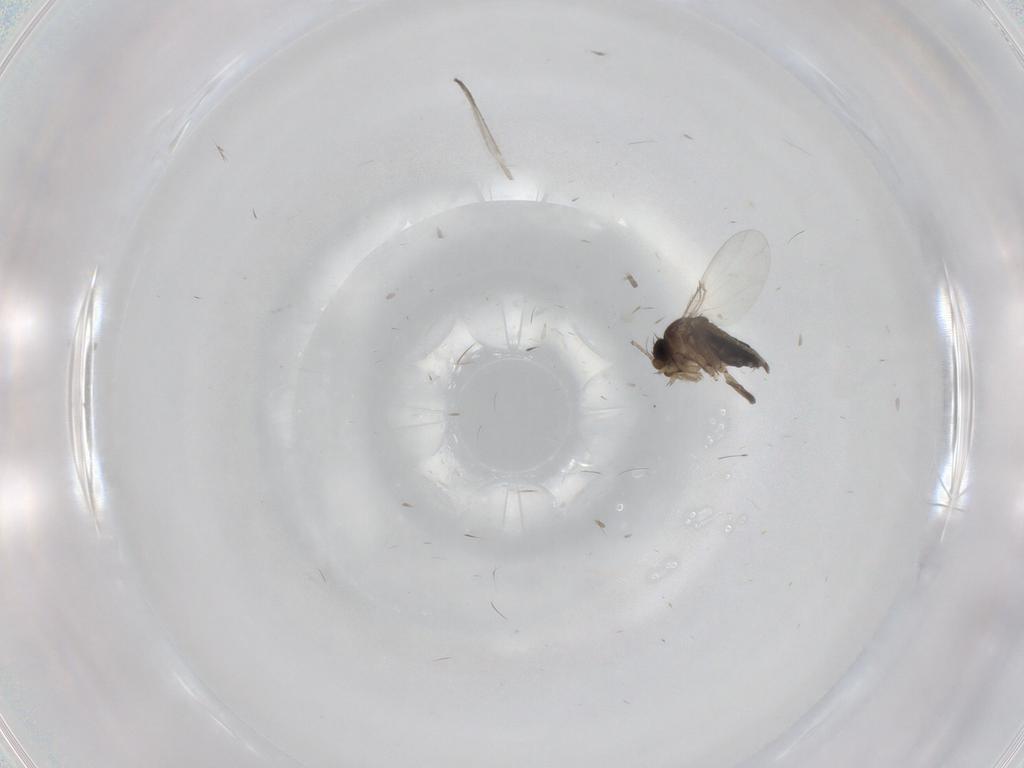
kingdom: Animalia
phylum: Arthropoda
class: Insecta
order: Diptera
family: Phoridae
